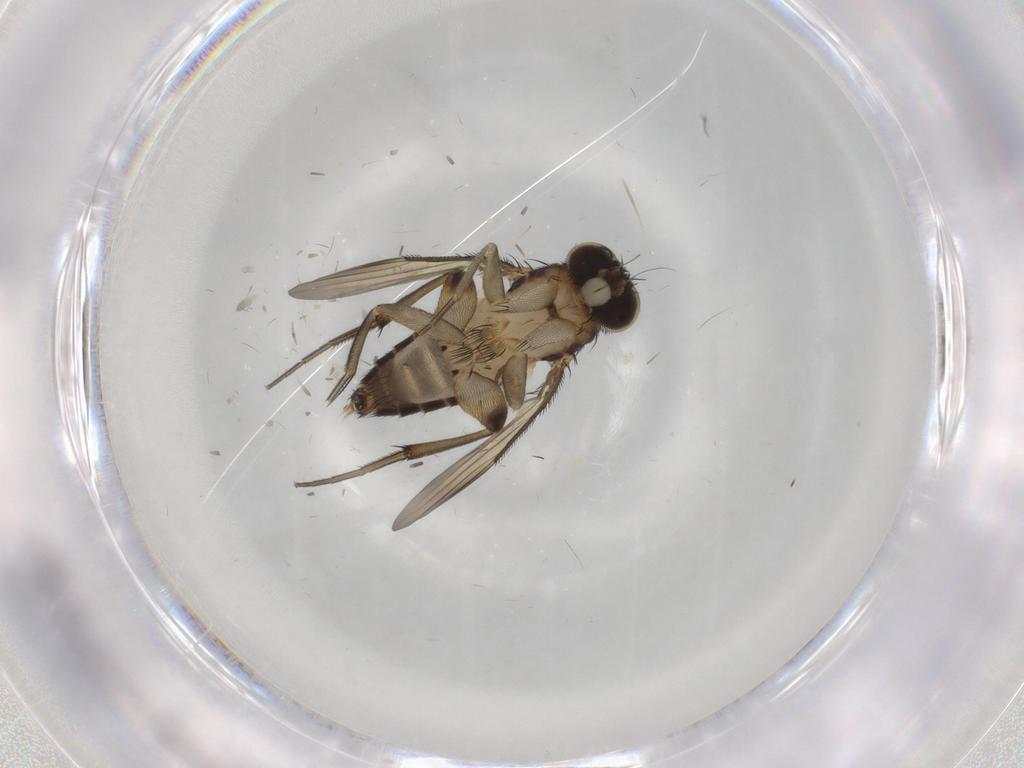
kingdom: Animalia
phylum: Arthropoda
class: Insecta
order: Diptera
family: Phoridae
